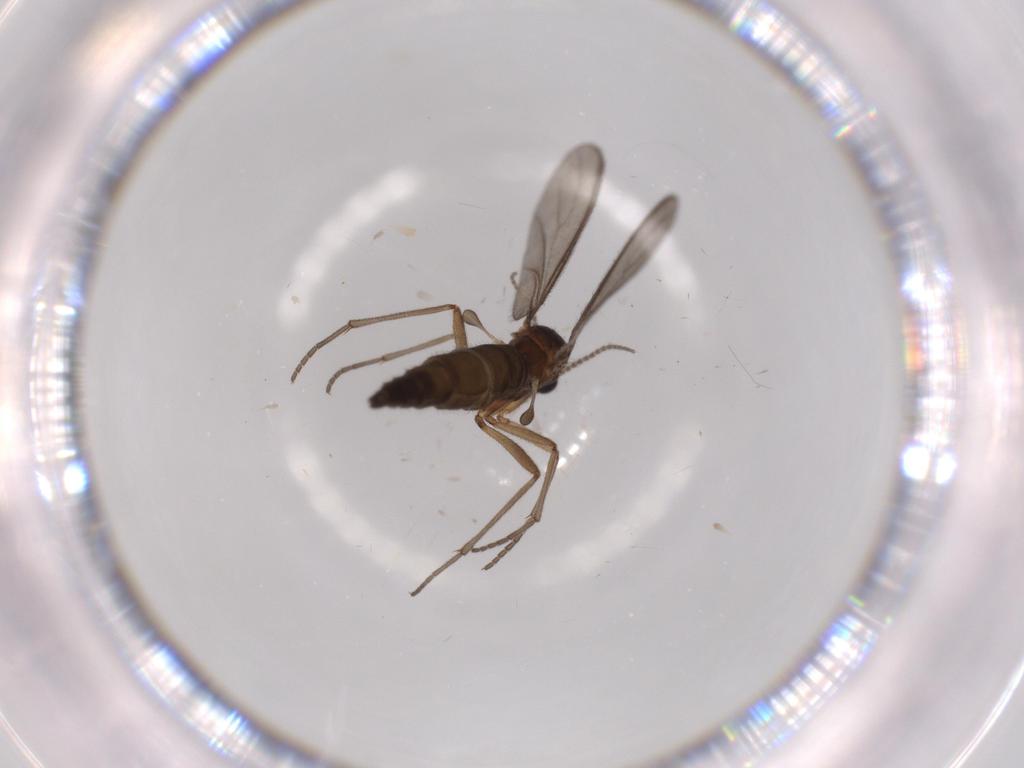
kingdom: Animalia
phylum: Arthropoda
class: Insecta
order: Diptera
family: Sciaridae
